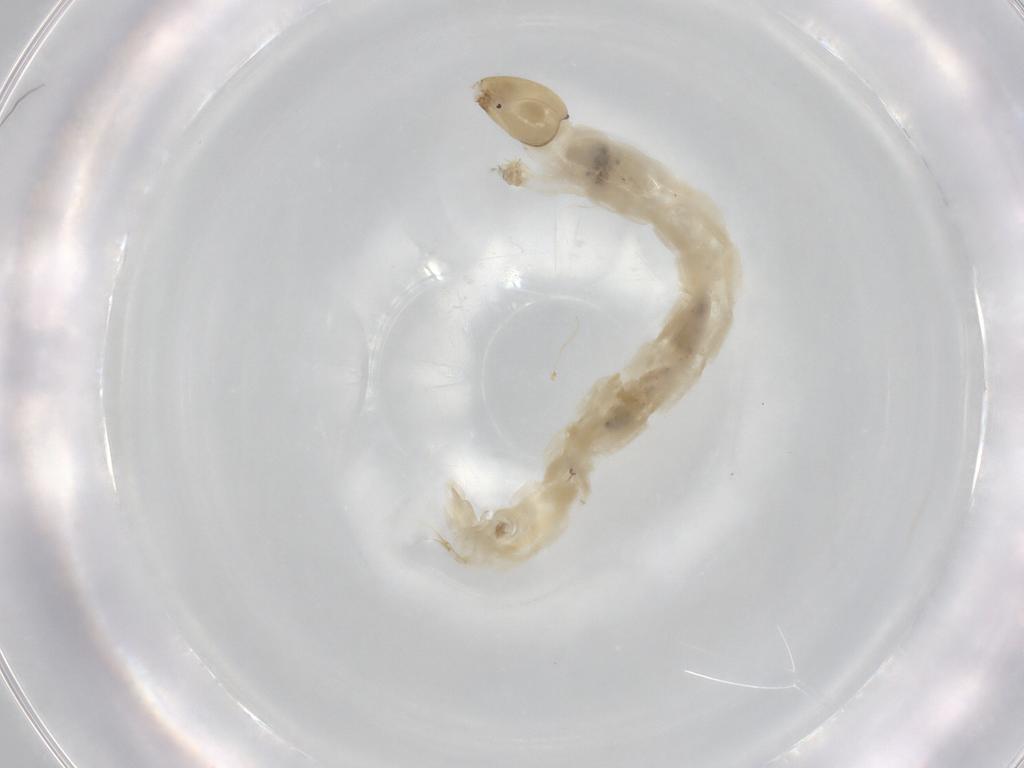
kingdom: Animalia
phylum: Arthropoda
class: Insecta
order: Diptera
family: Chironomidae
